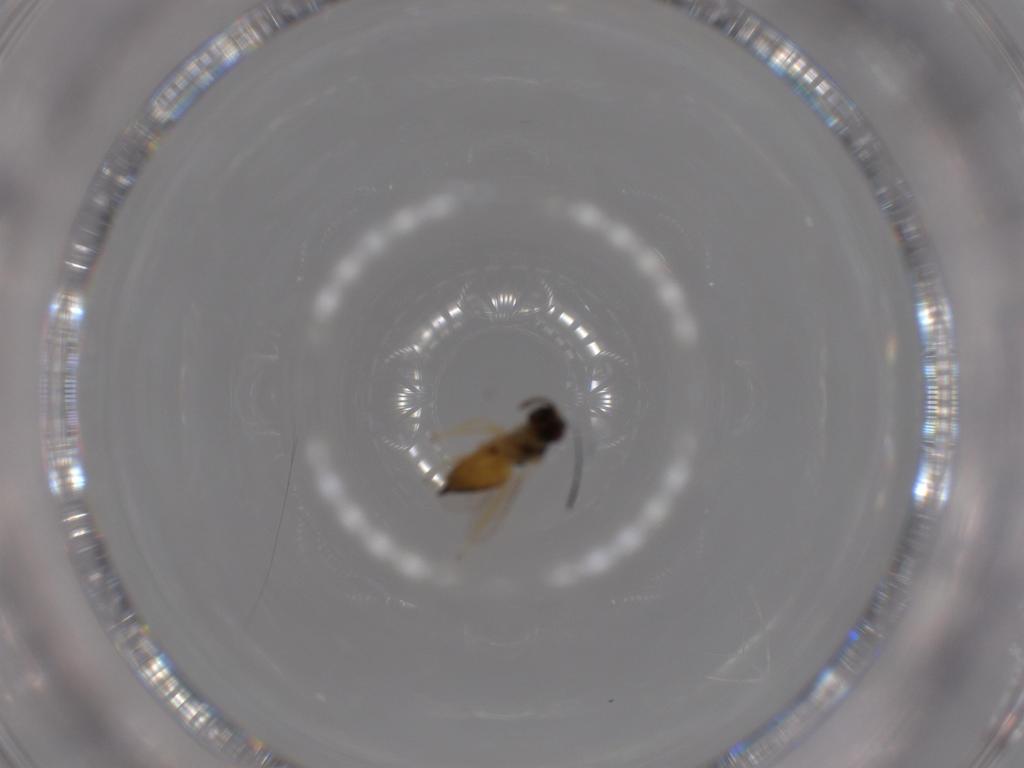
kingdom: Animalia
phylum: Arthropoda
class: Insecta
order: Hymenoptera
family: Eulophidae
